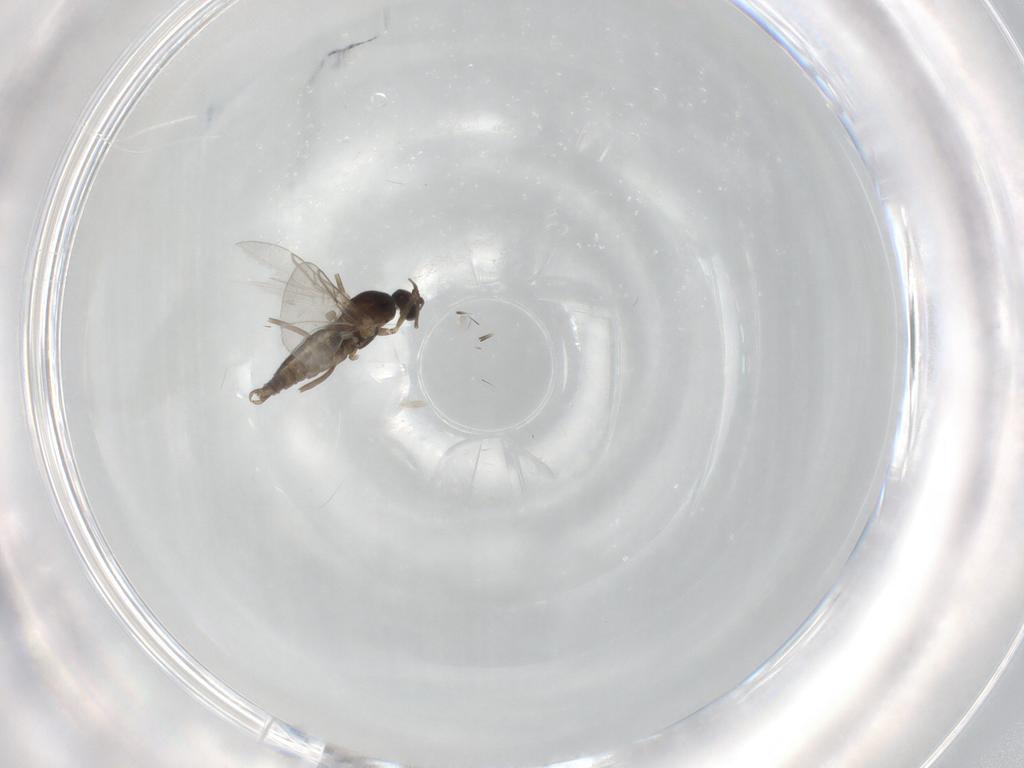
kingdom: Animalia
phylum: Arthropoda
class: Insecta
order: Diptera
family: Cecidomyiidae
